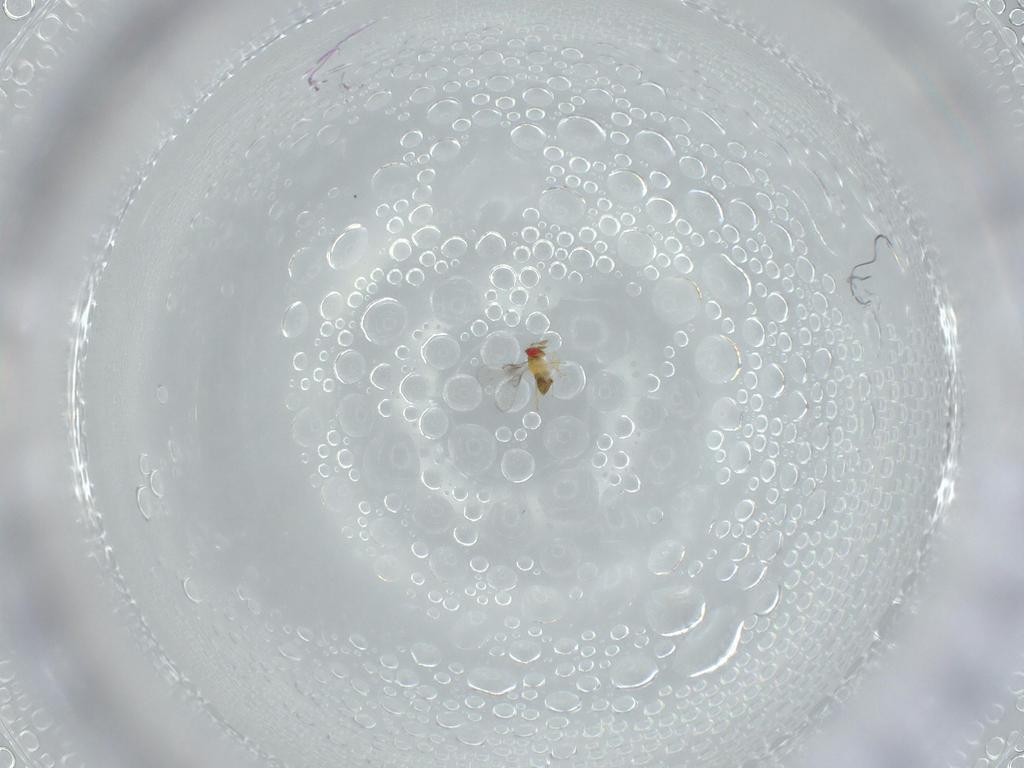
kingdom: Animalia
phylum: Arthropoda
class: Insecta
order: Hymenoptera
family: Trichogrammatidae
